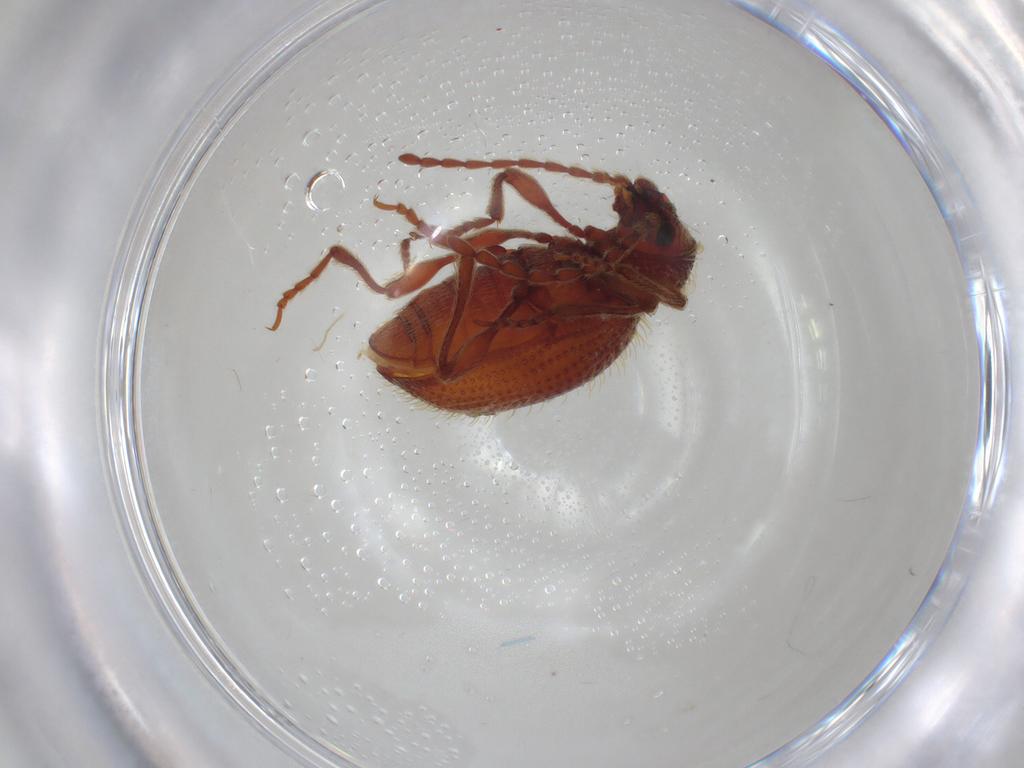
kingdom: Animalia
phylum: Arthropoda
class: Insecta
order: Coleoptera
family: Ptinidae
